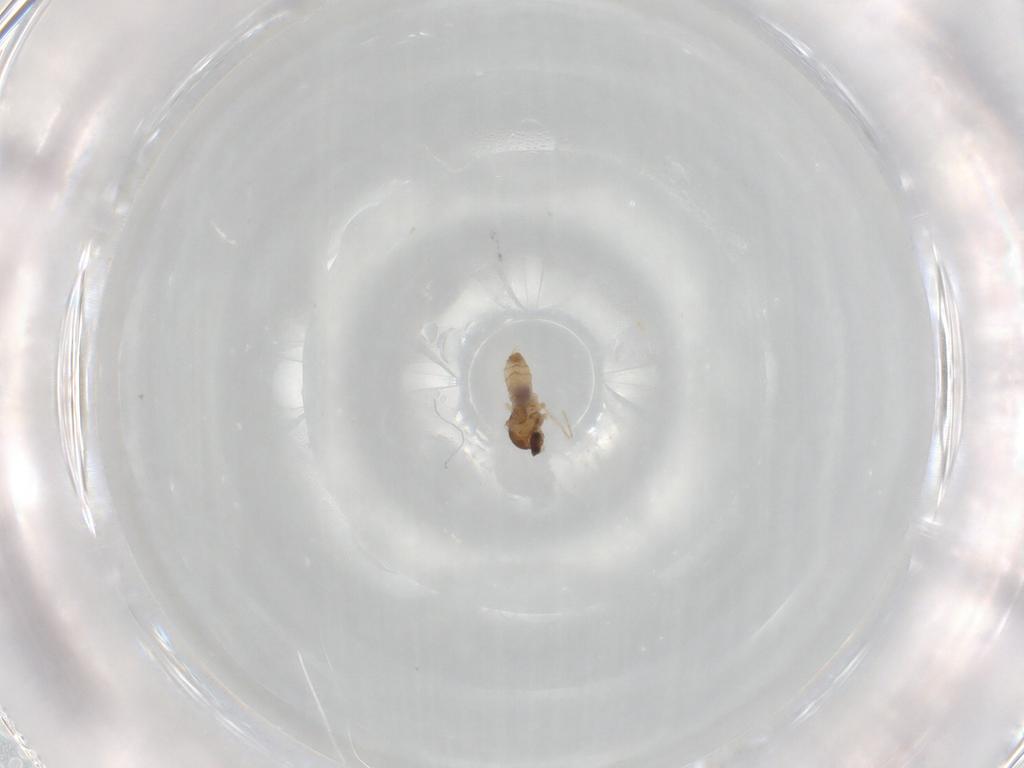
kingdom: Animalia
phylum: Arthropoda
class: Insecta
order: Diptera
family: Tabanidae
